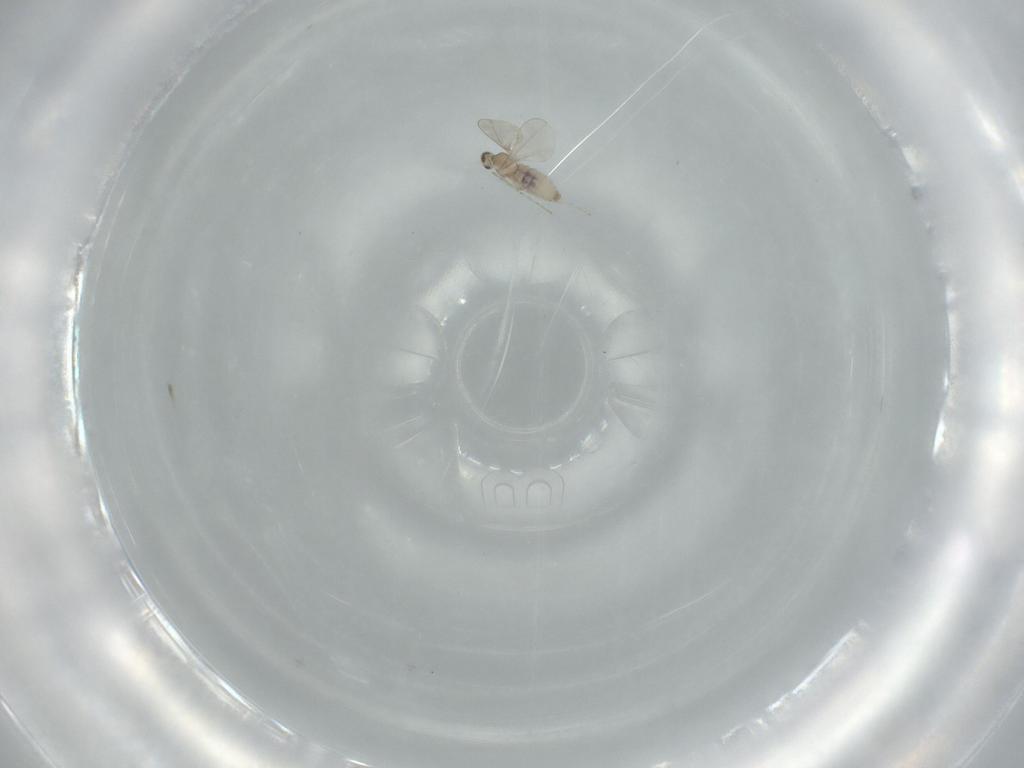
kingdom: Animalia
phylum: Arthropoda
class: Insecta
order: Diptera
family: Cecidomyiidae
